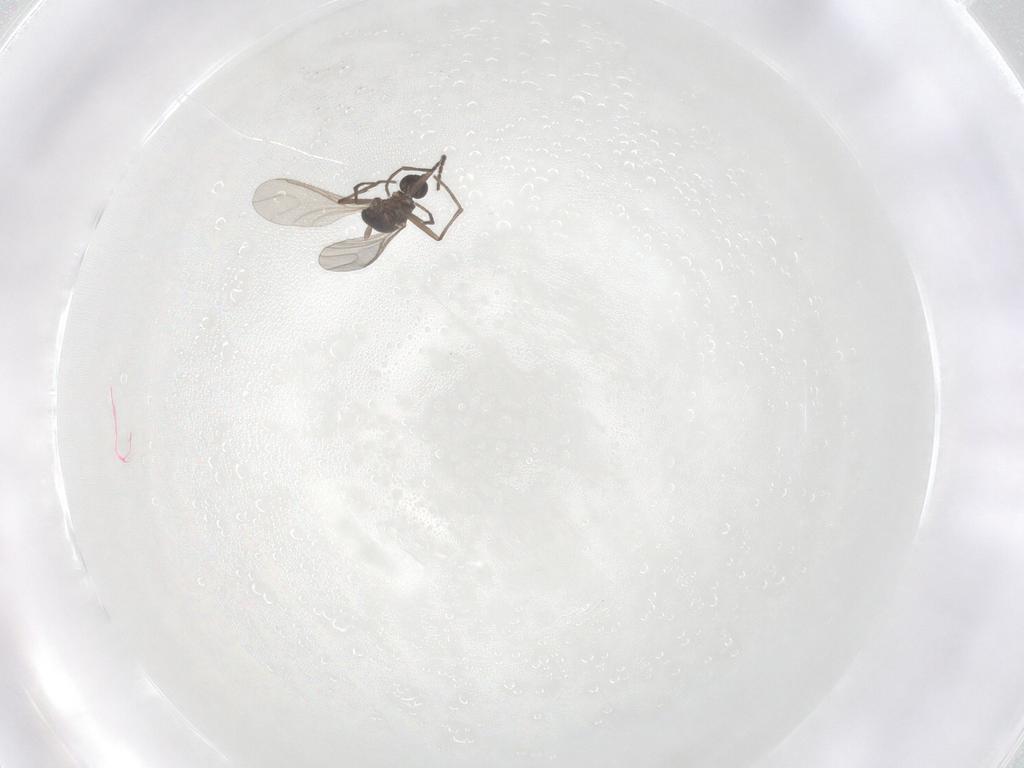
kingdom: Animalia
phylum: Arthropoda
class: Insecta
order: Diptera
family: Sciaridae
